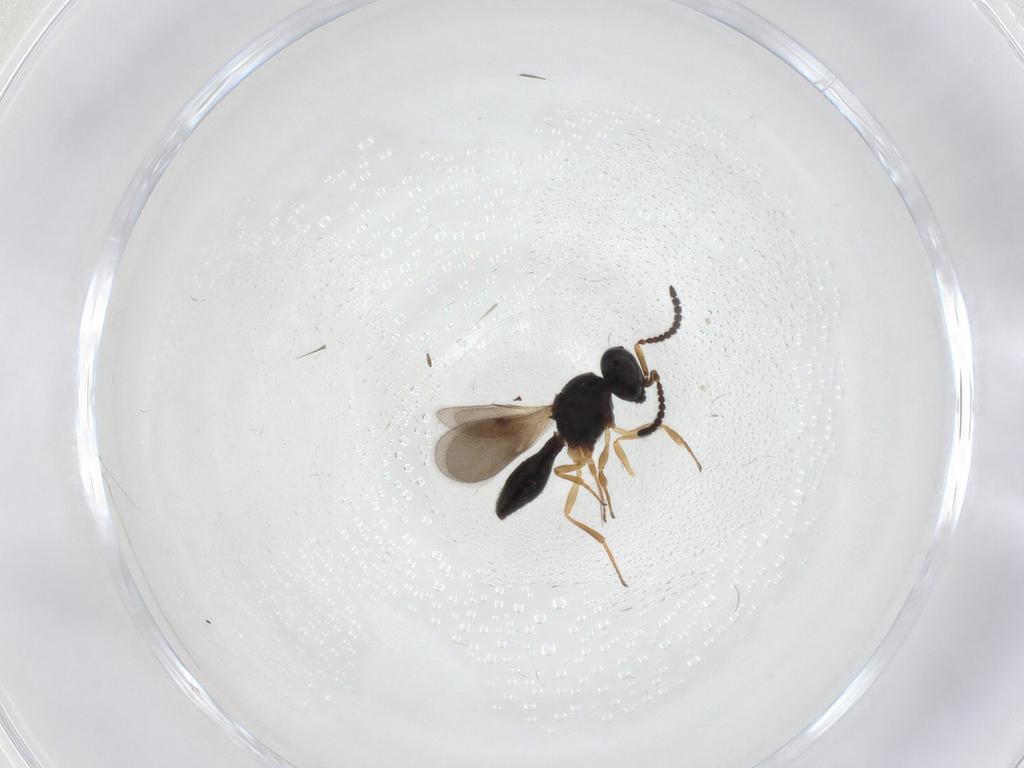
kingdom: Animalia
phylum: Arthropoda
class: Insecta
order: Hymenoptera
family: Scelionidae
